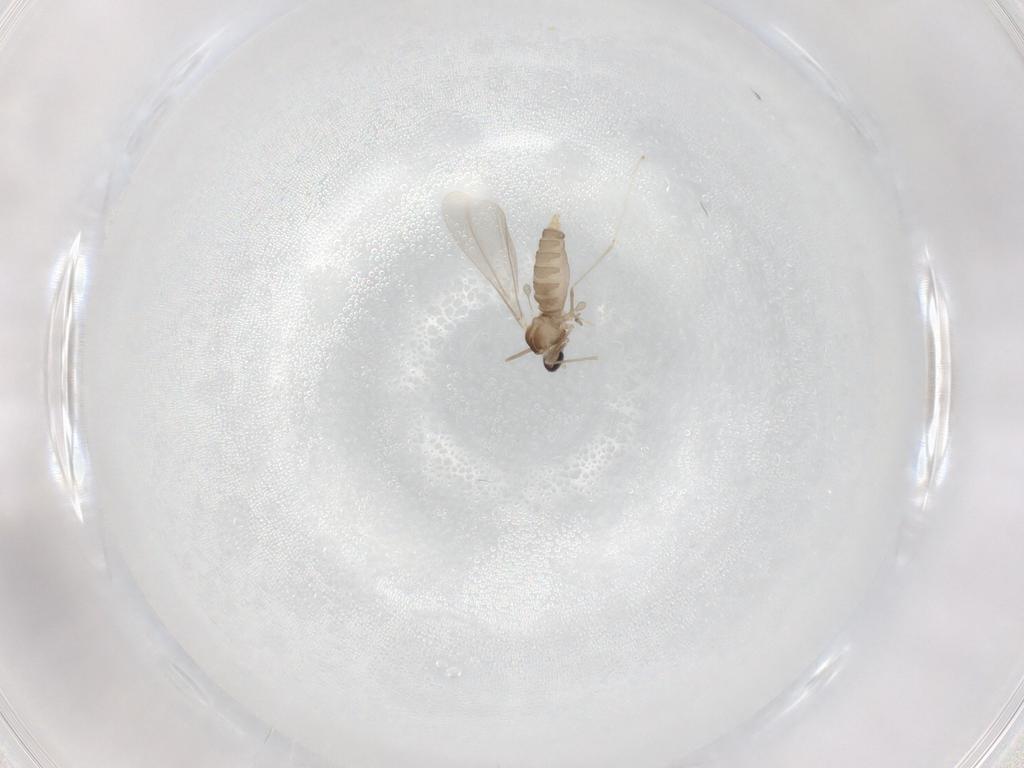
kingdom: Animalia
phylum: Arthropoda
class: Insecta
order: Diptera
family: Cecidomyiidae
